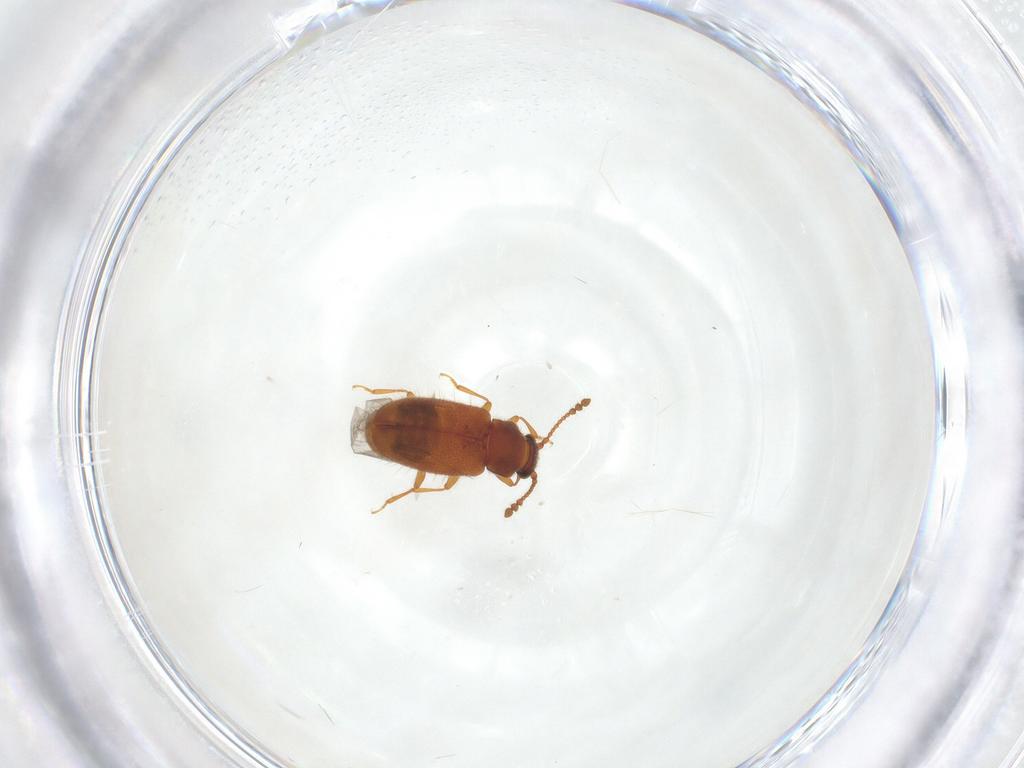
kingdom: Animalia
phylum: Arthropoda
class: Insecta
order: Coleoptera
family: Cryptophagidae
